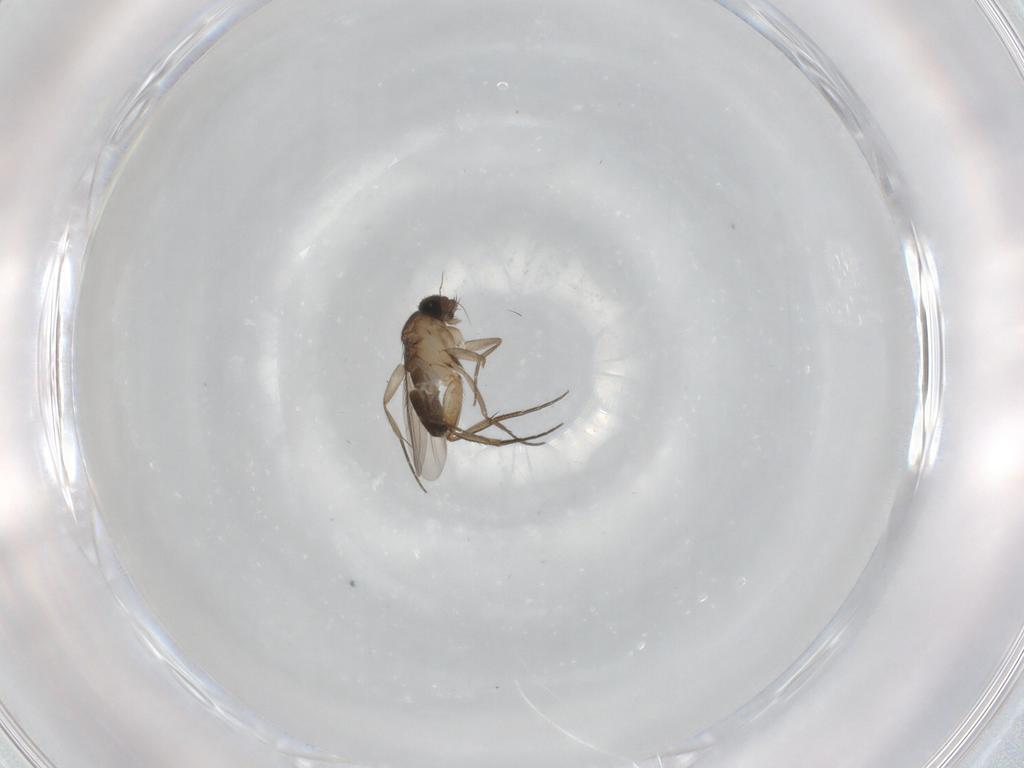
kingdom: Animalia
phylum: Arthropoda
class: Insecta
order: Diptera
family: Phoridae
